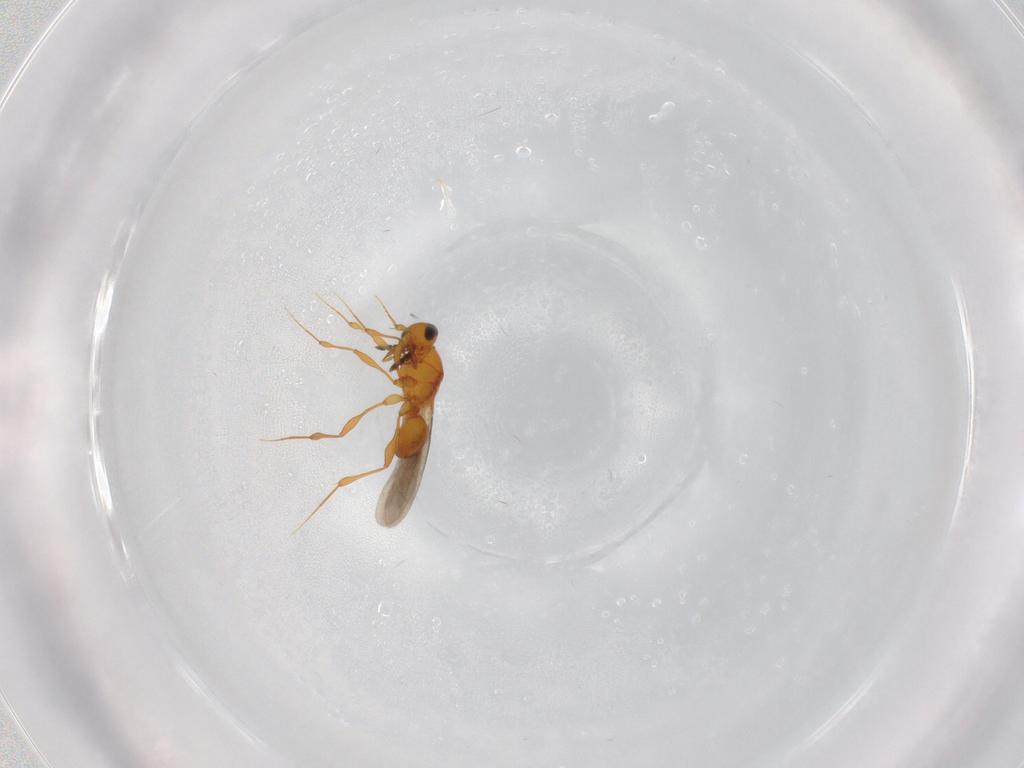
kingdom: Animalia
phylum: Arthropoda
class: Insecta
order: Hymenoptera
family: Platygastridae
